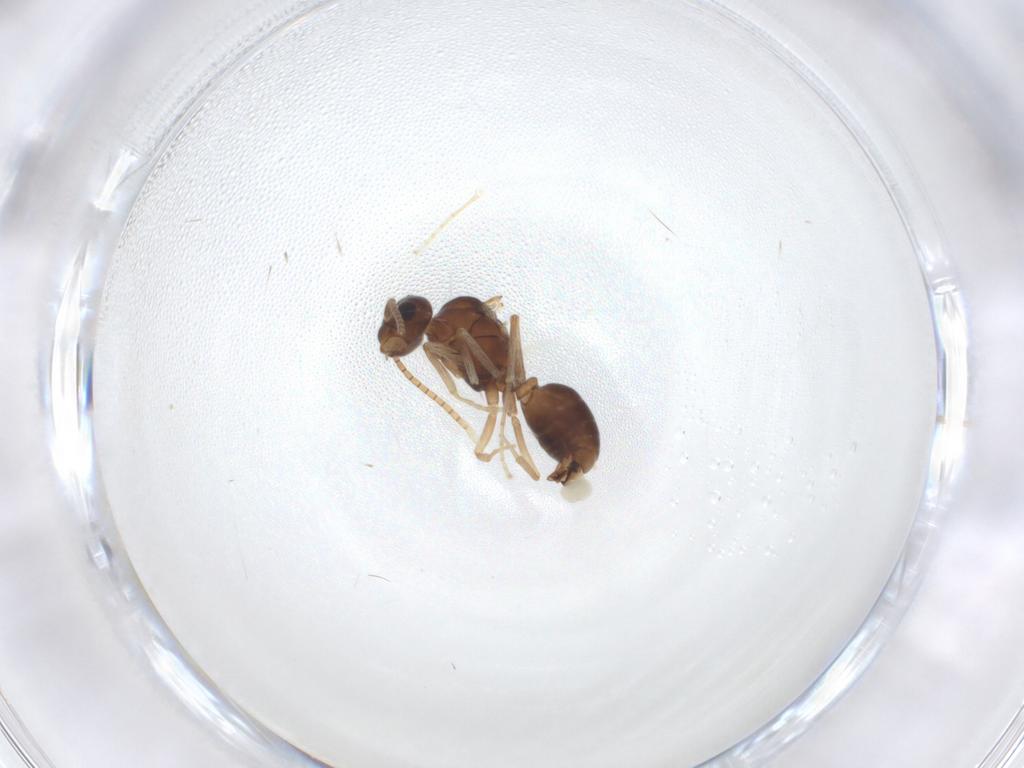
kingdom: Animalia
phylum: Arthropoda
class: Insecta
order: Hymenoptera
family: Formicidae
